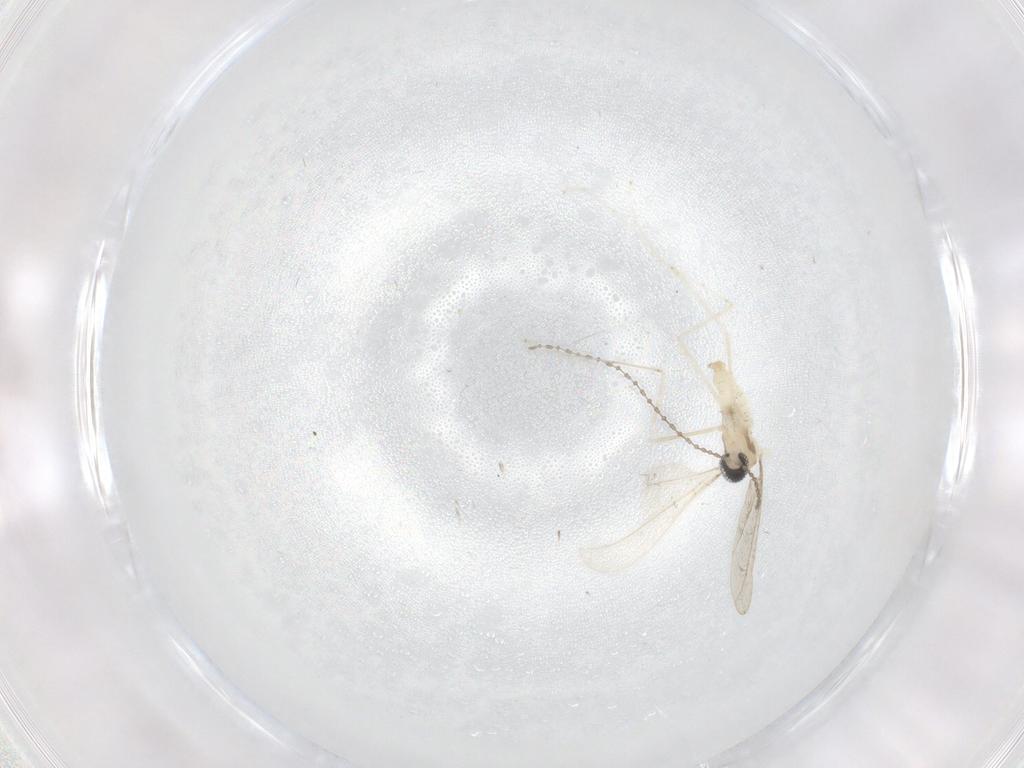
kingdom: Animalia
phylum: Arthropoda
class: Insecta
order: Diptera
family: Cecidomyiidae
